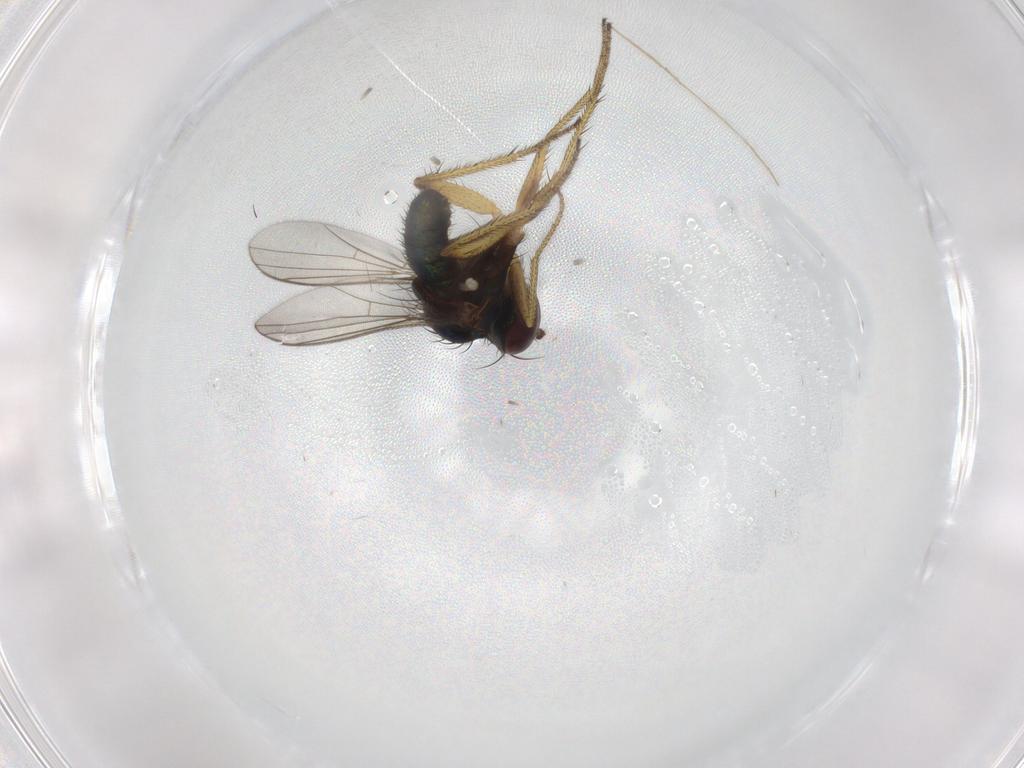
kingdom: Animalia
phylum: Arthropoda
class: Insecta
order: Diptera
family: Chironomidae
